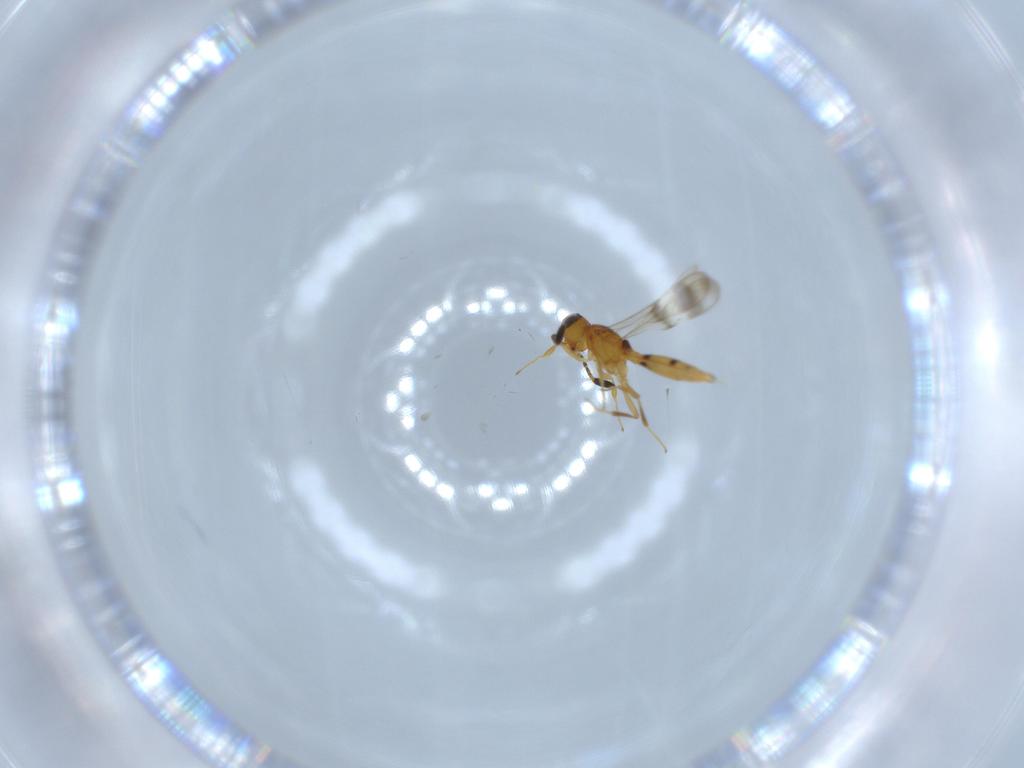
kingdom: Animalia
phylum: Arthropoda
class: Insecta
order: Hymenoptera
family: Scelionidae
